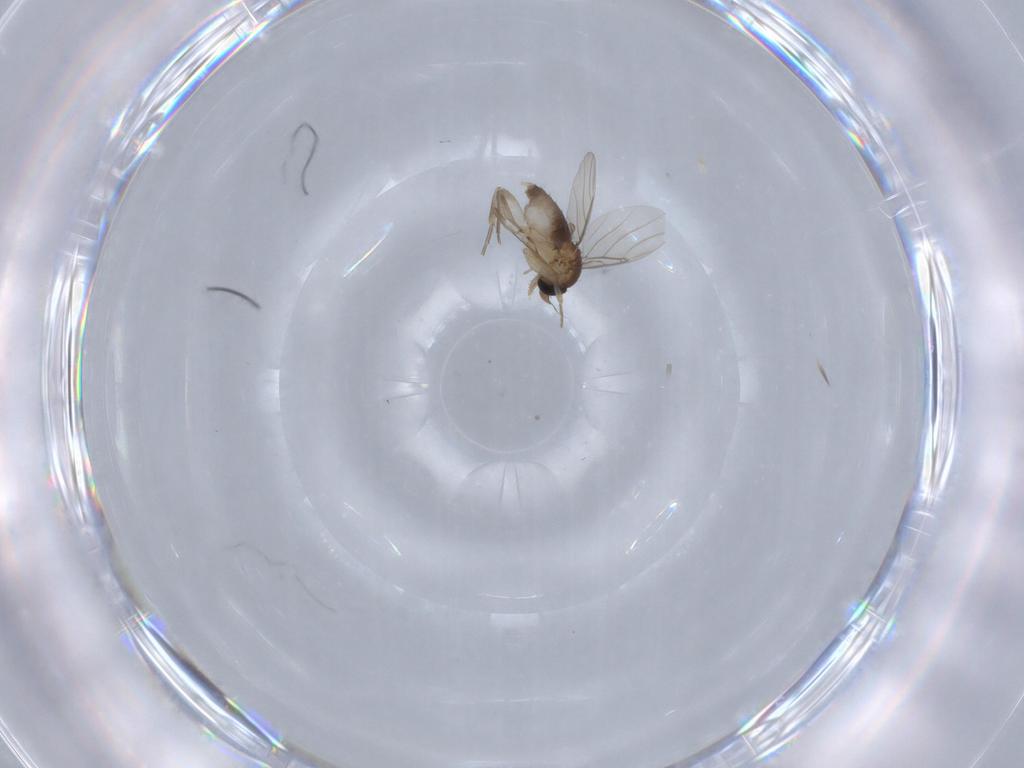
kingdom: Animalia
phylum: Arthropoda
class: Insecta
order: Diptera
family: Phoridae
